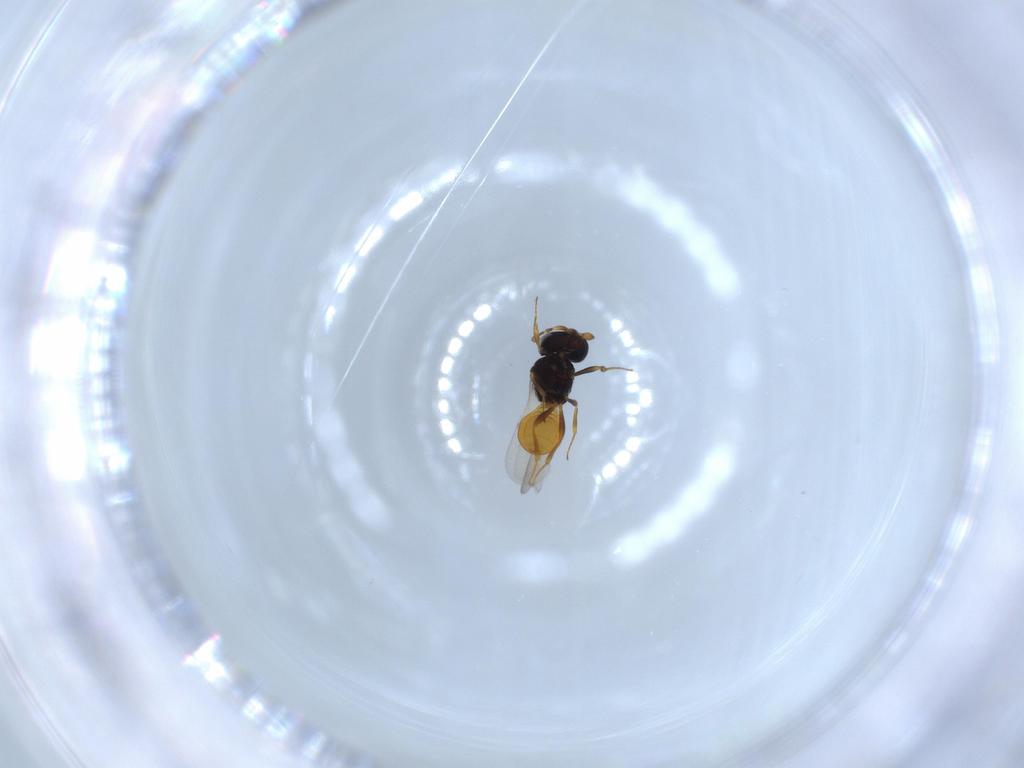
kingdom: Animalia
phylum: Arthropoda
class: Insecta
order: Hymenoptera
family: Scelionidae
